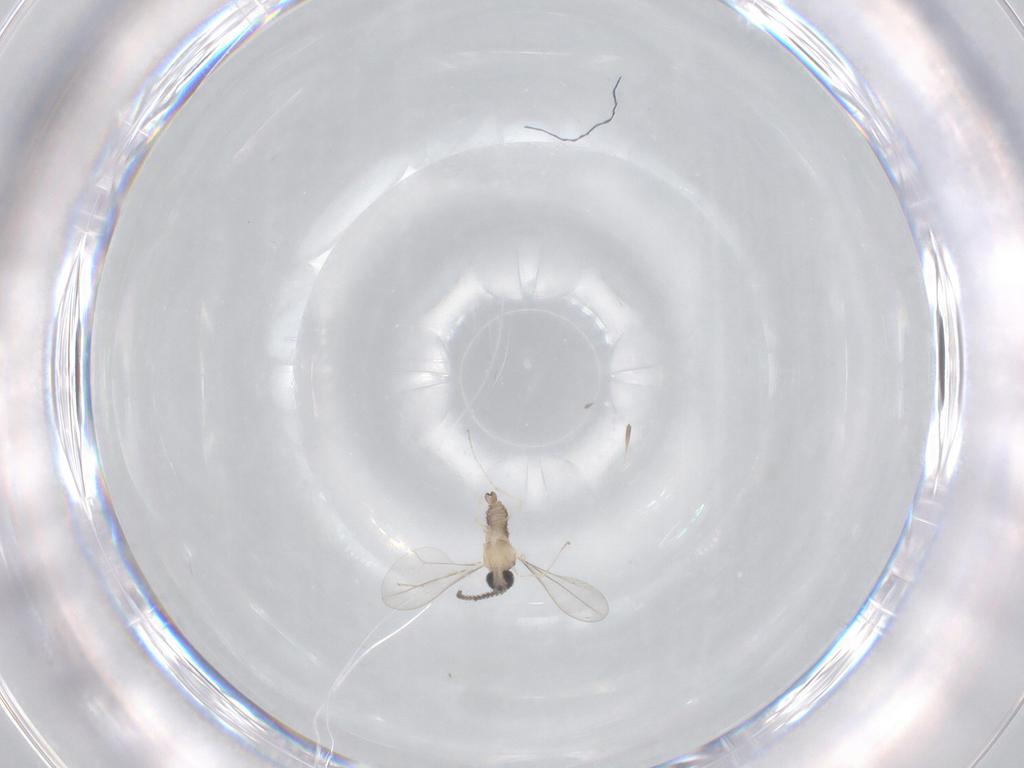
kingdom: Animalia
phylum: Arthropoda
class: Insecta
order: Diptera
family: Cecidomyiidae
